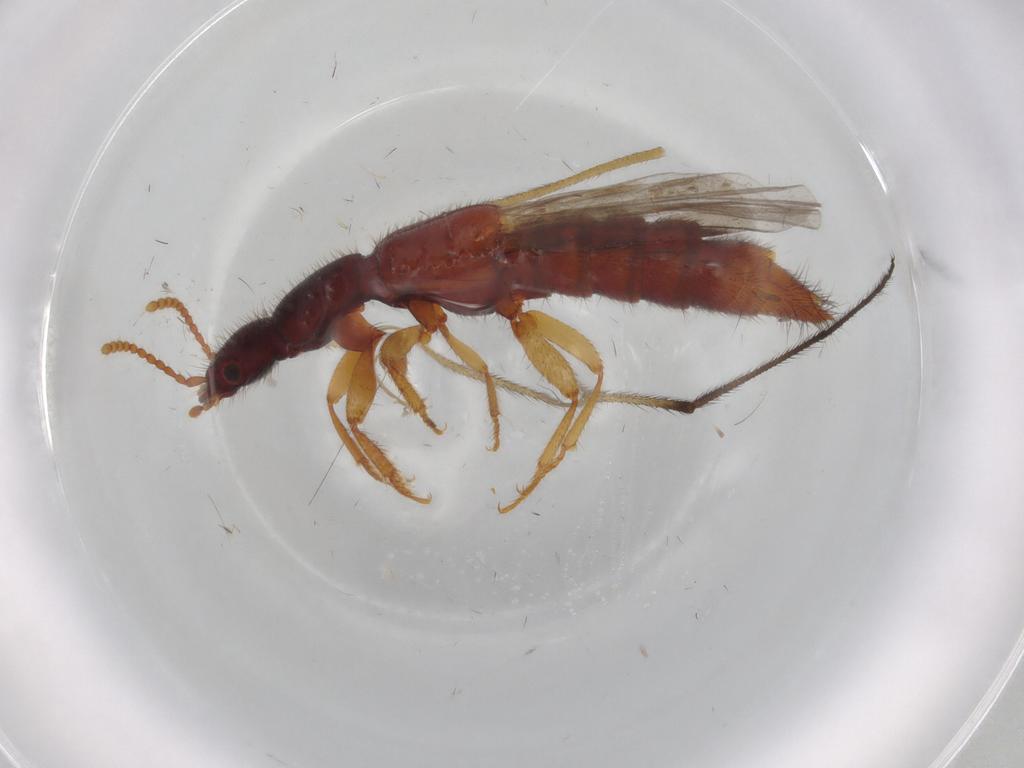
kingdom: Animalia
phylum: Arthropoda
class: Insecta
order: Coleoptera
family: Staphylinidae
